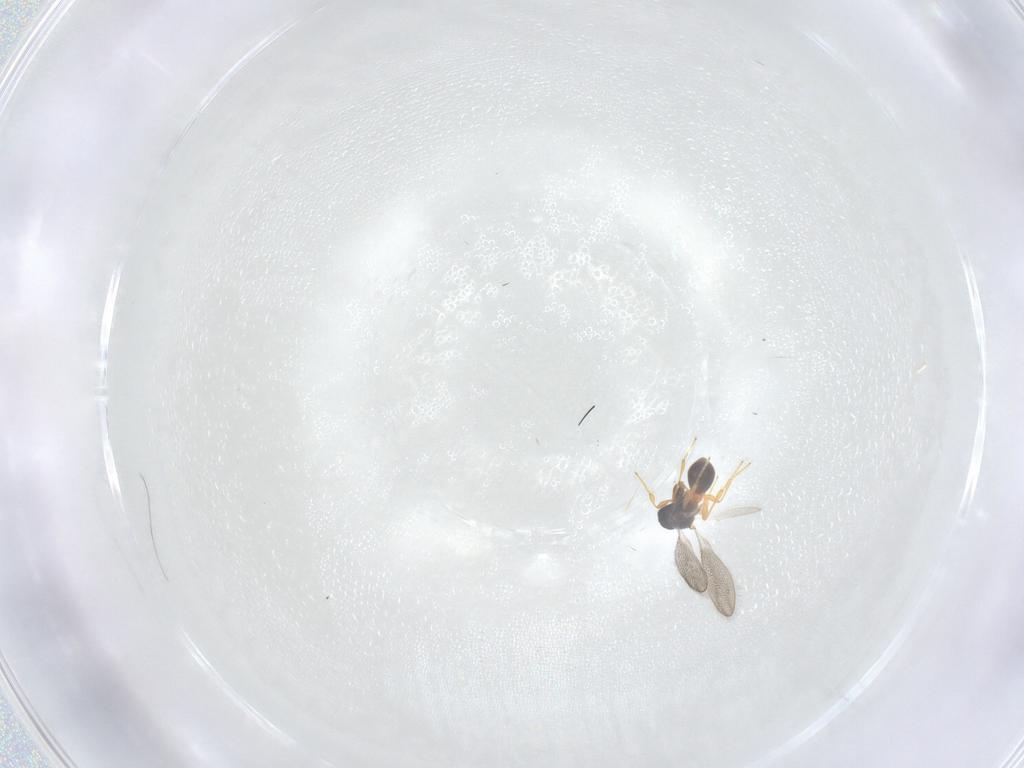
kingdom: Animalia
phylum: Arthropoda
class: Insecta
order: Hymenoptera
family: Platygastridae
